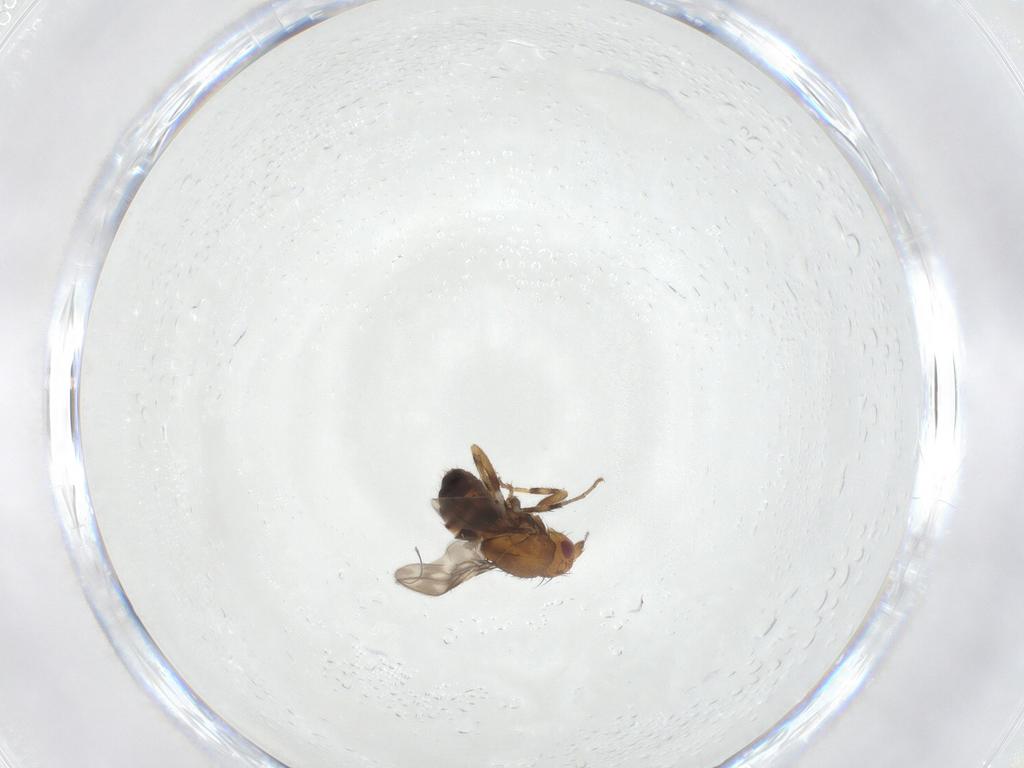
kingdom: Animalia
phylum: Arthropoda
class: Insecta
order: Diptera
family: Sphaeroceridae
